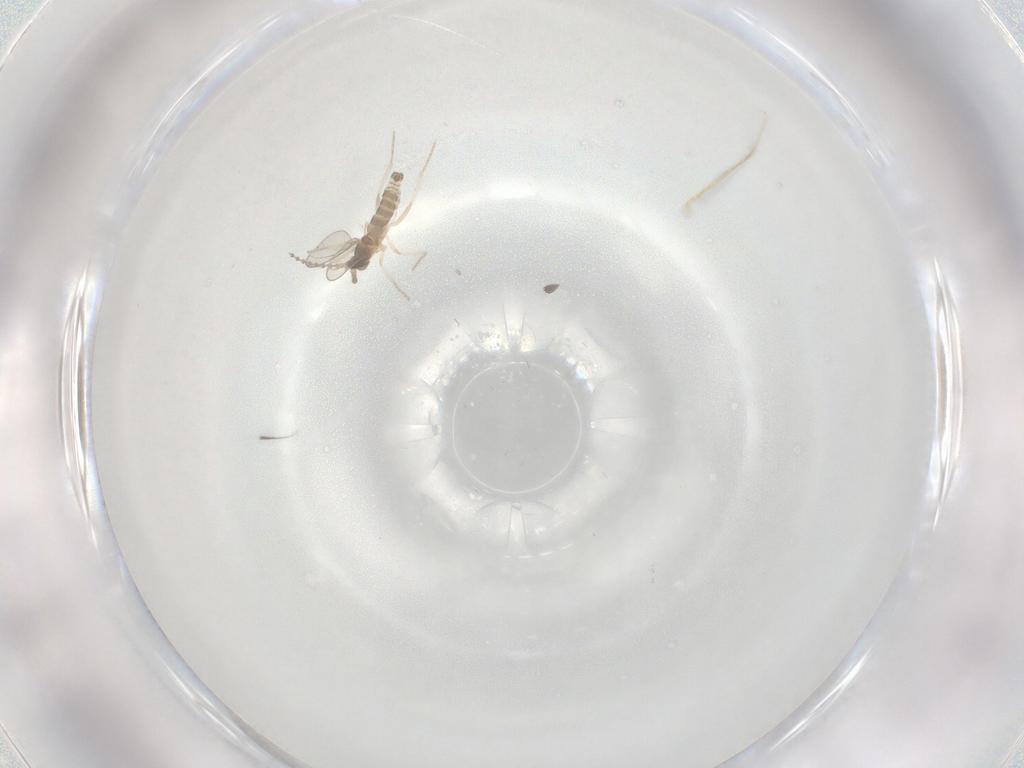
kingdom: Animalia
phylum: Arthropoda
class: Insecta
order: Diptera
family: Cecidomyiidae
